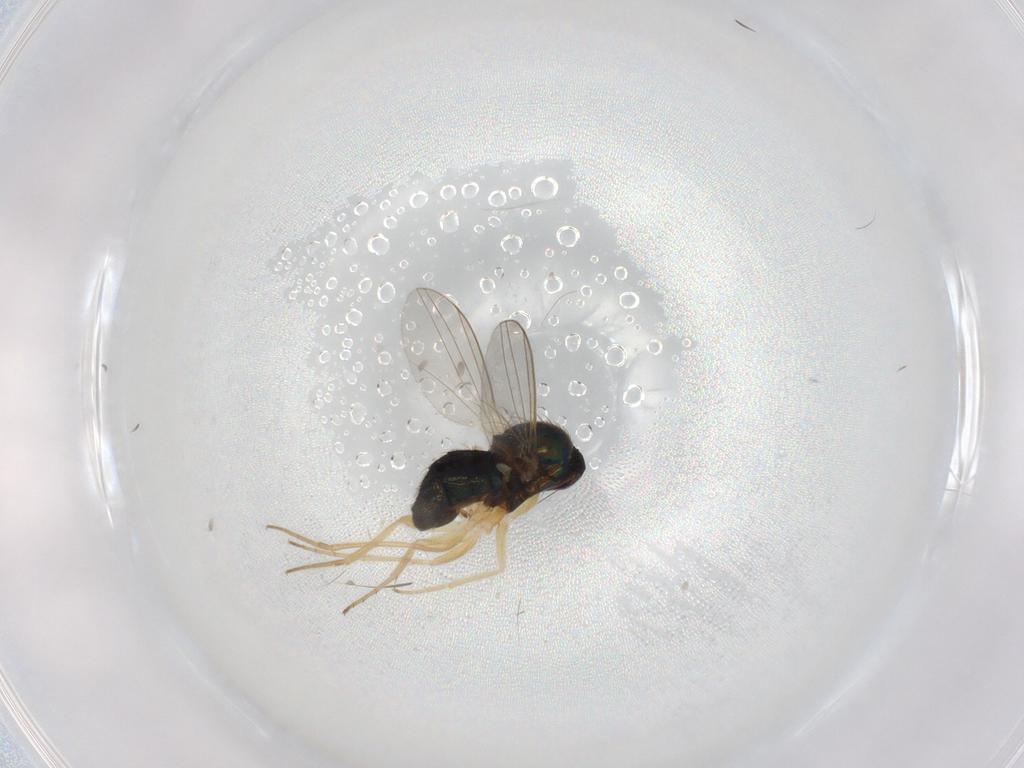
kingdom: Animalia
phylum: Arthropoda
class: Insecta
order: Diptera
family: Dolichopodidae
